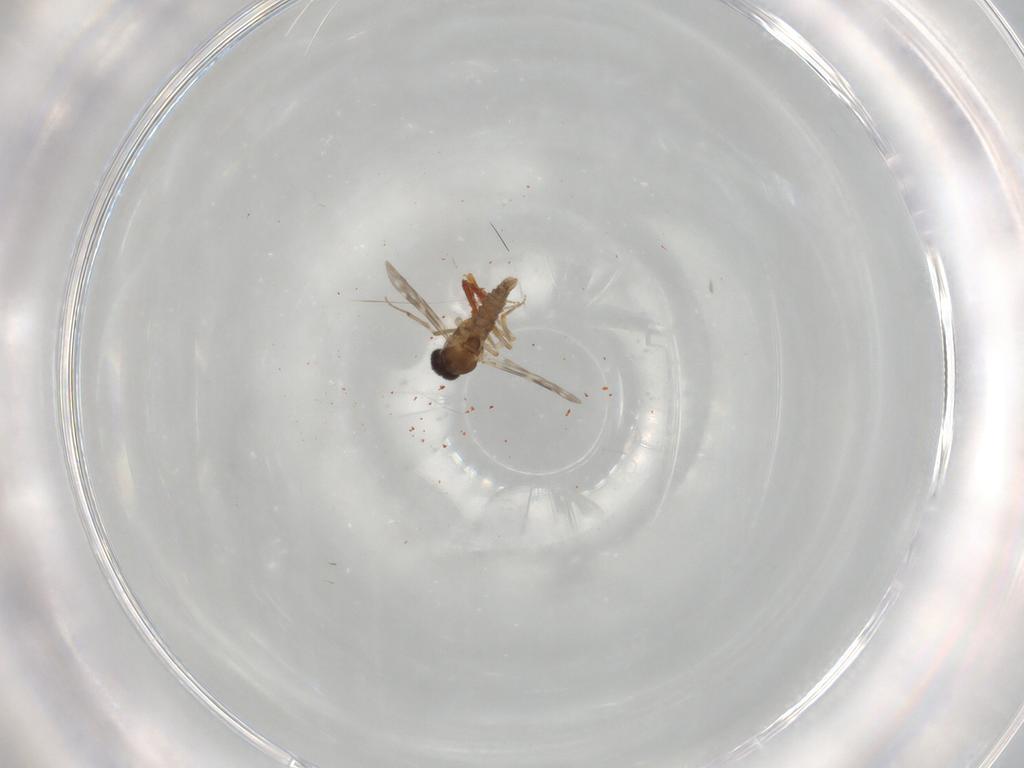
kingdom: Animalia
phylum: Arthropoda
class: Insecta
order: Diptera
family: Ceratopogonidae
